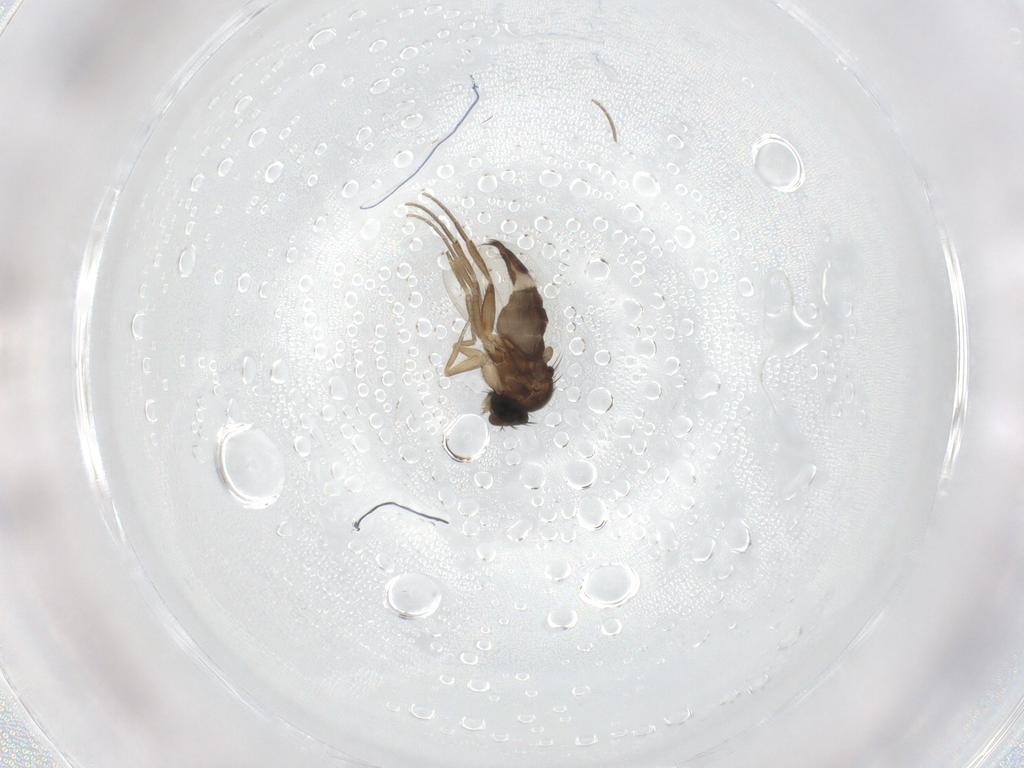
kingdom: Animalia
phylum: Arthropoda
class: Insecta
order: Diptera
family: Phoridae
